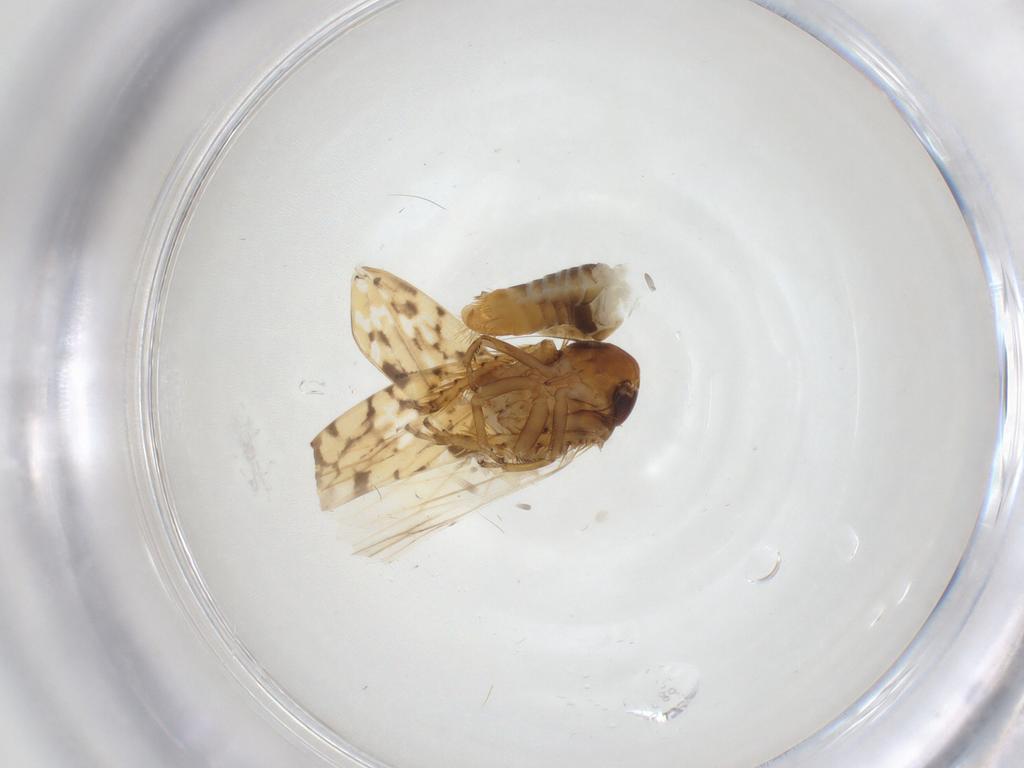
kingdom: Animalia
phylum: Arthropoda
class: Insecta
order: Hemiptera
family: Cicadellidae
